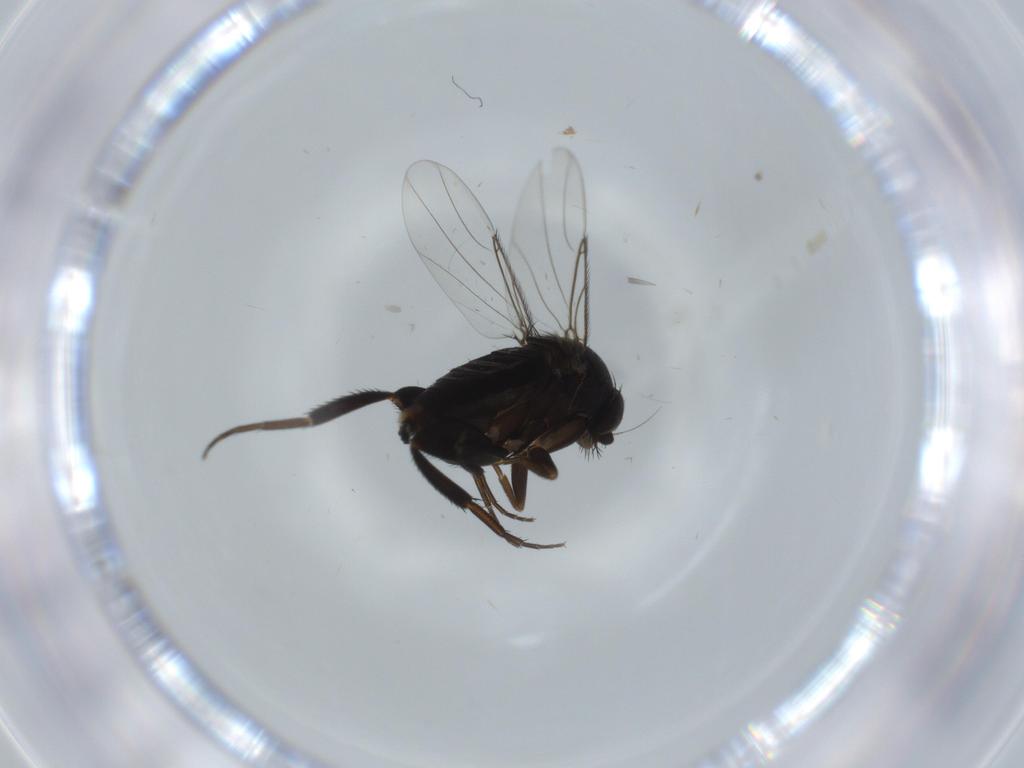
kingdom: Animalia
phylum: Arthropoda
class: Insecta
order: Diptera
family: Phoridae
